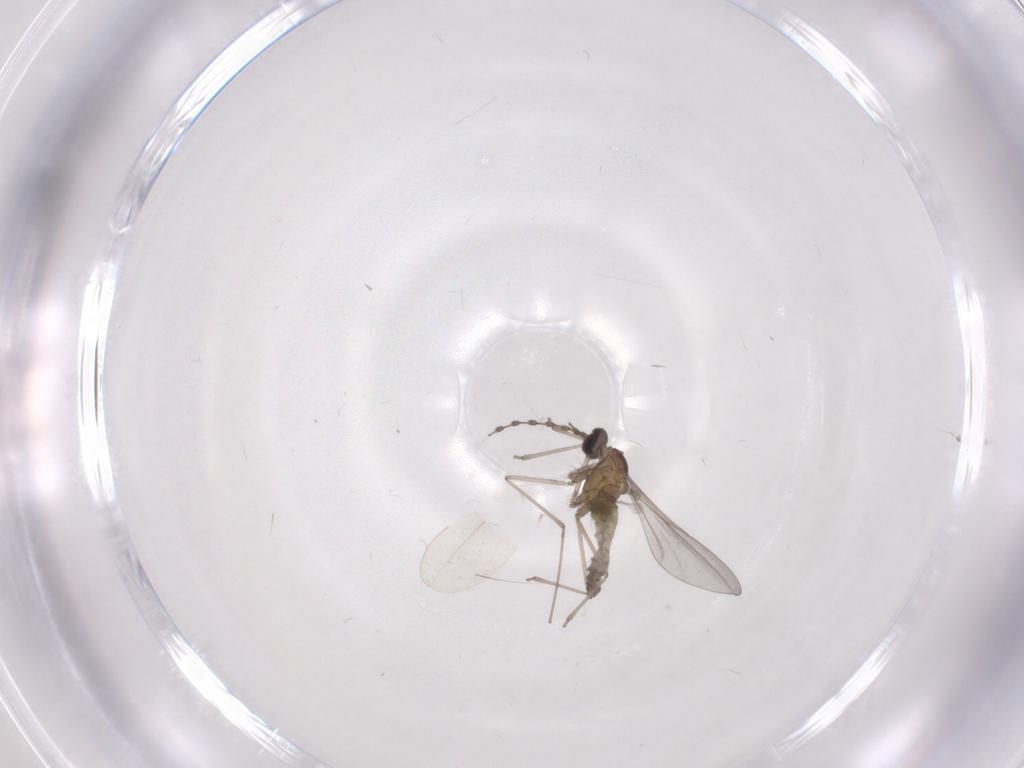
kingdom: Animalia
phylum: Arthropoda
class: Insecta
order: Diptera
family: Cecidomyiidae
